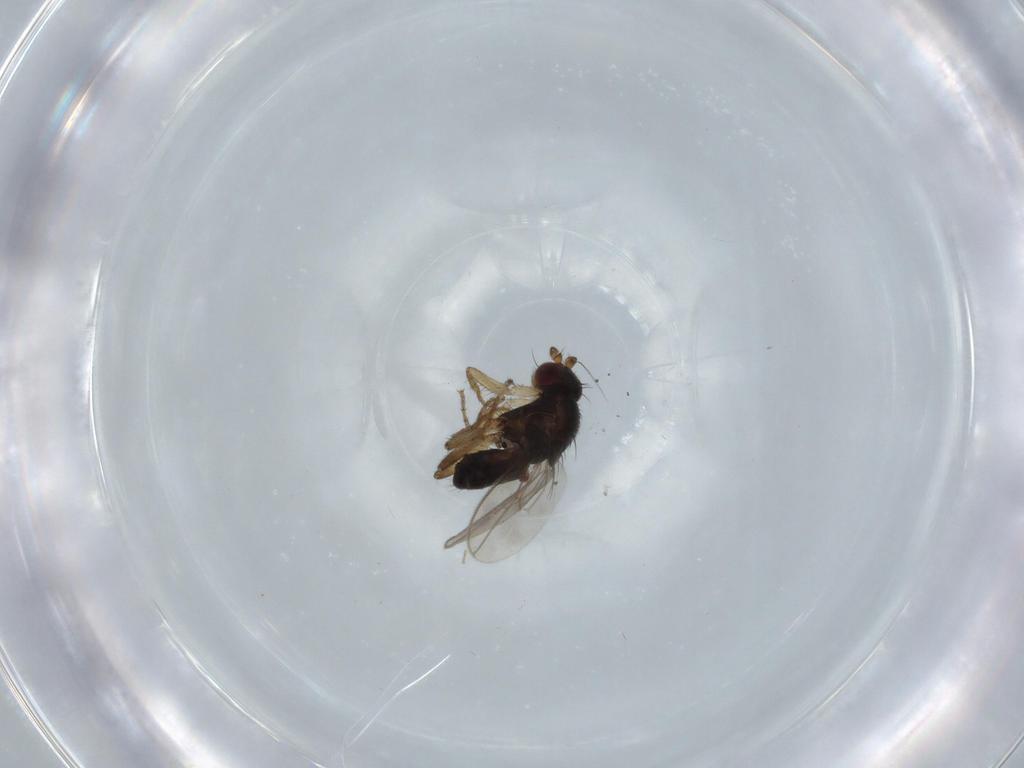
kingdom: Animalia
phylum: Arthropoda
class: Insecta
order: Diptera
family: Sphaeroceridae
